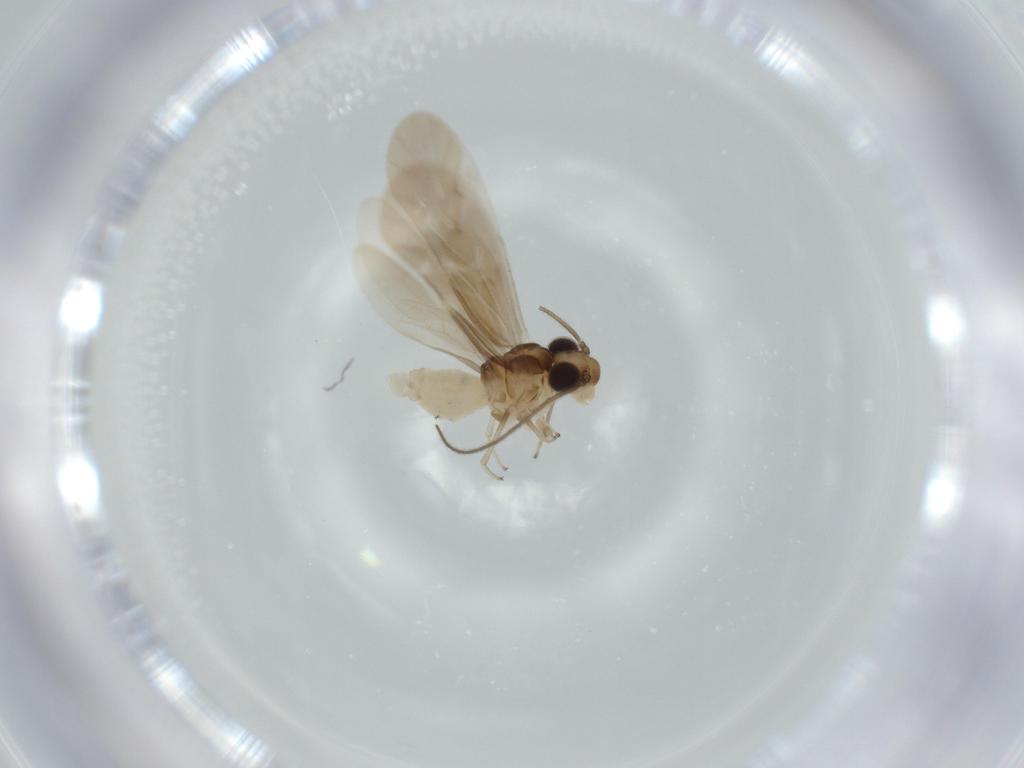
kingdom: Animalia
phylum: Arthropoda
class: Insecta
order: Psocodea
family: Caeciliusidae
